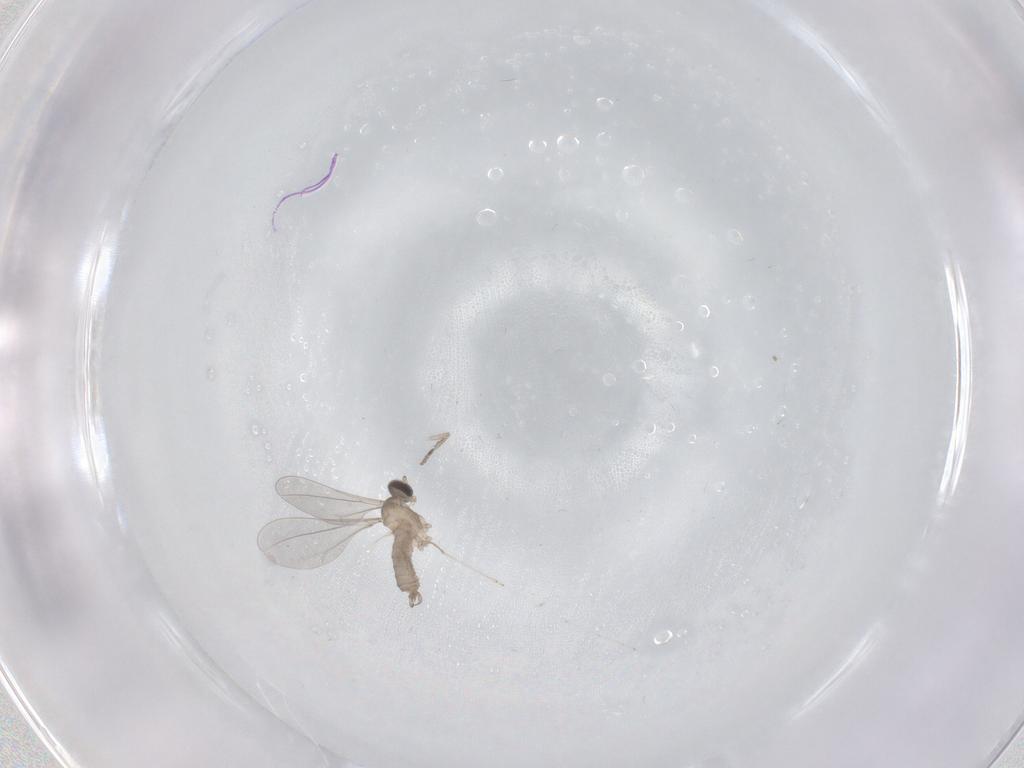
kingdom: Animalia
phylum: Arthropoda
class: Insecta
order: Diptera
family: Cecidomyiidae
